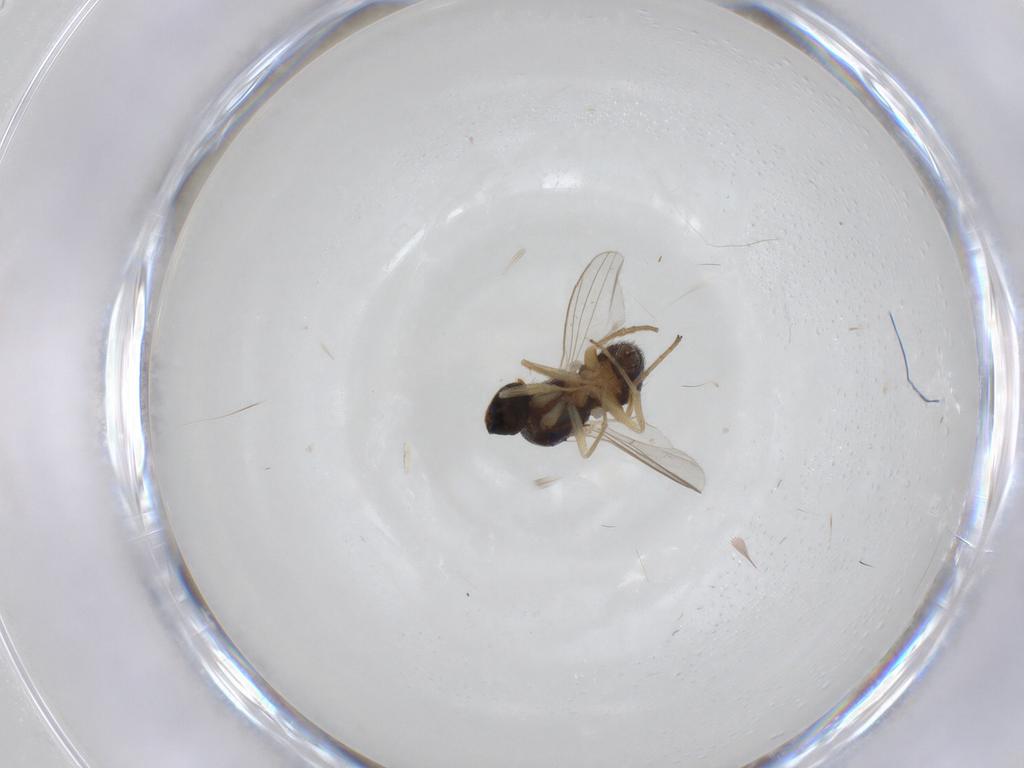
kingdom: Animalia
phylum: Arthropoda
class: Insecta
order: Diptera
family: Dolichopodidae
